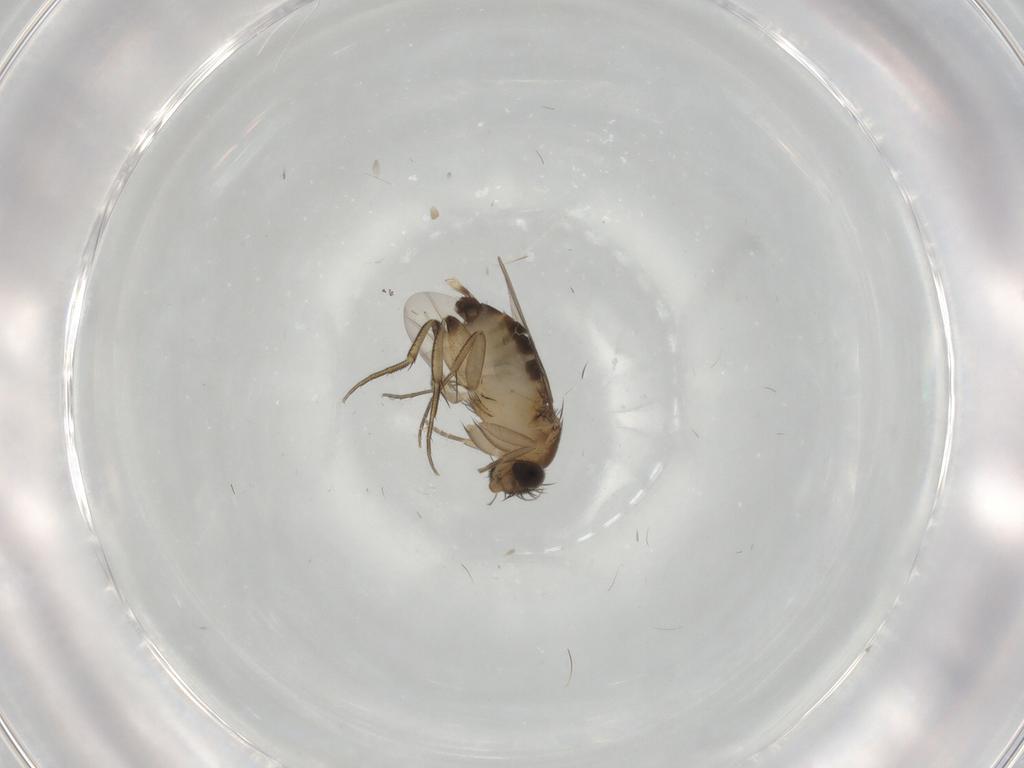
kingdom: Animalia
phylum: Arthropoda
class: Insecta
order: Diptera
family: Phoridae
